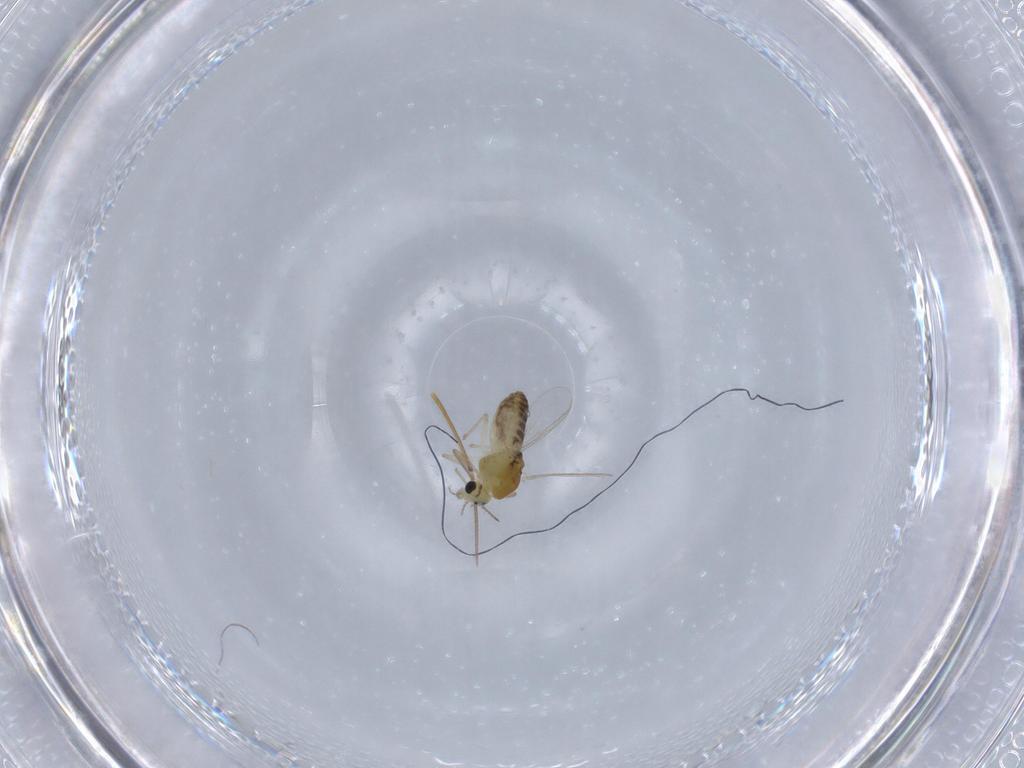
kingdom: Animalia
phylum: Arthropoda
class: Insecta
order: Diptera
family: Chironomidae
